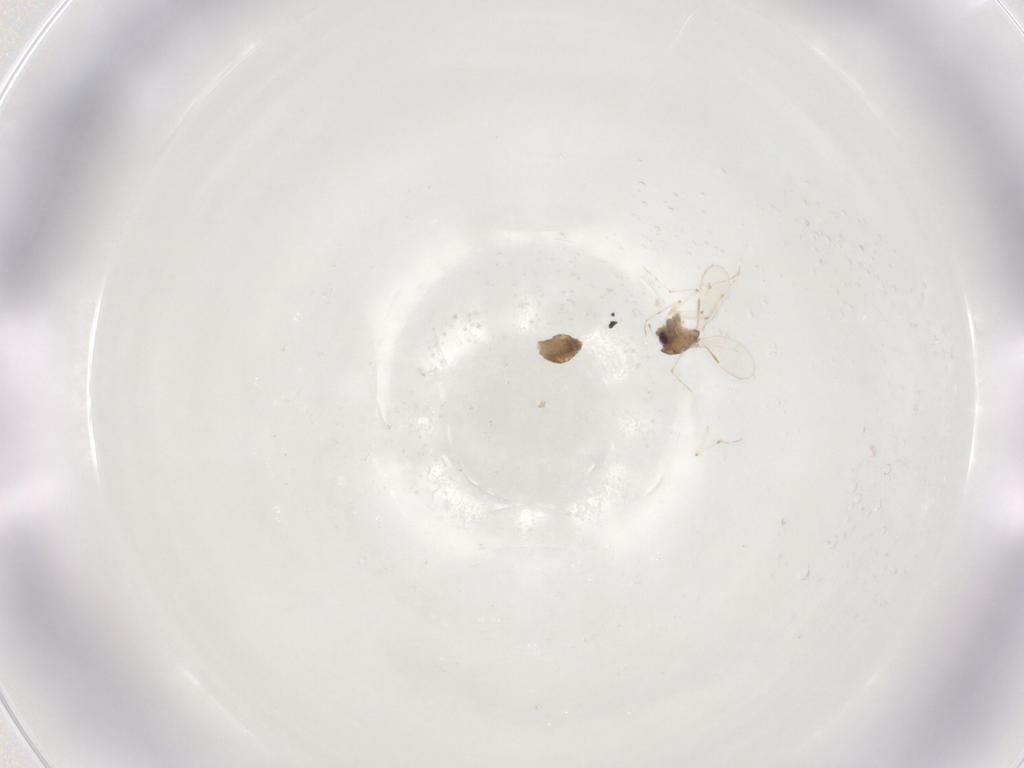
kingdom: Animalia
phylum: Arthropoda
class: Insecta
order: Diptera
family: Chironomidae
